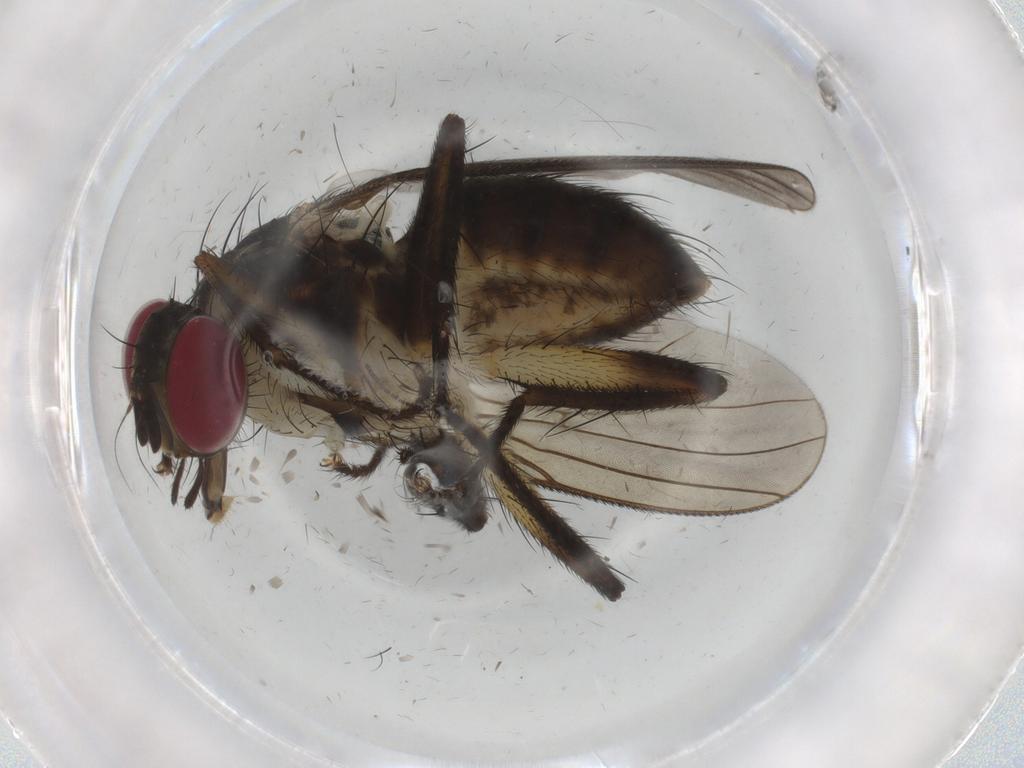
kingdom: Animalia
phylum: Arthropoda
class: Insecta
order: Diptera
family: Muscidae
